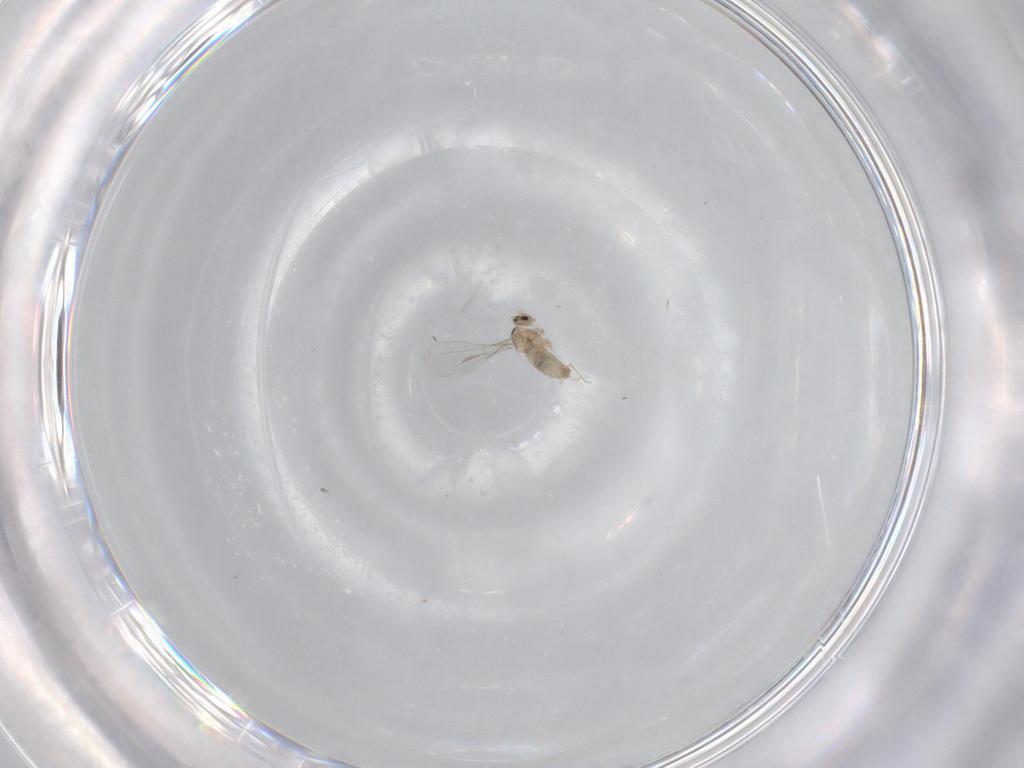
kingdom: Animalia
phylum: Arthropoda
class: Insecta
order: Diptera
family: Cecidomyiidae
